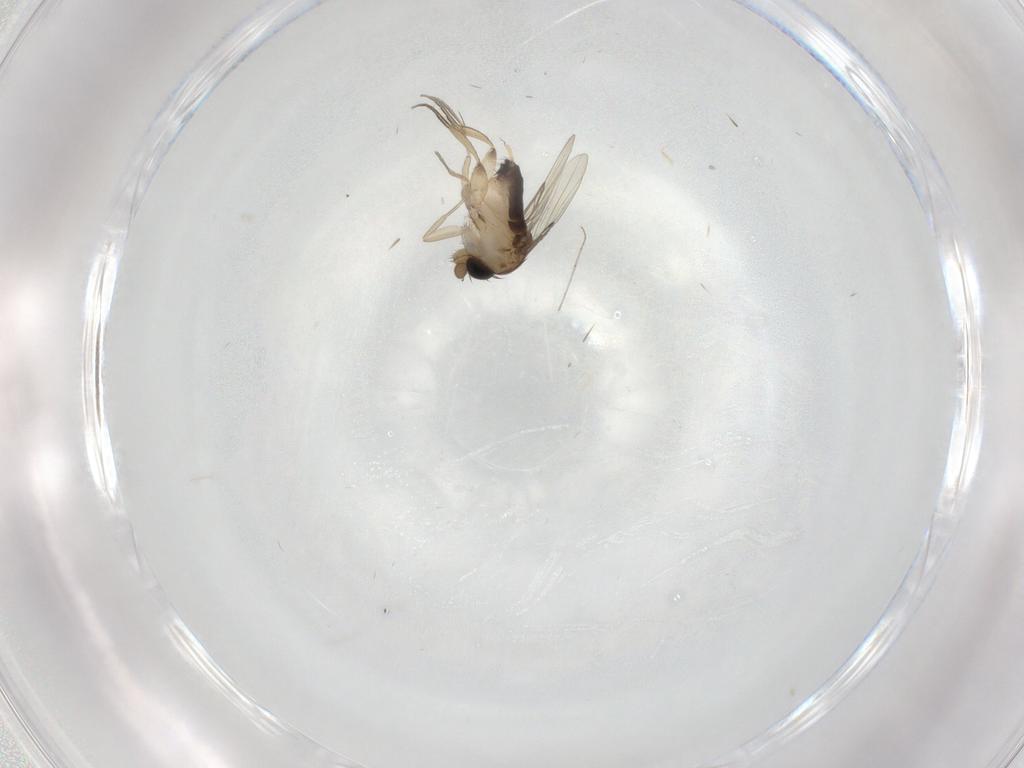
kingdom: Animalia
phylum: Arthropoda
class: Insecta
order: Diptera
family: Phoridae
